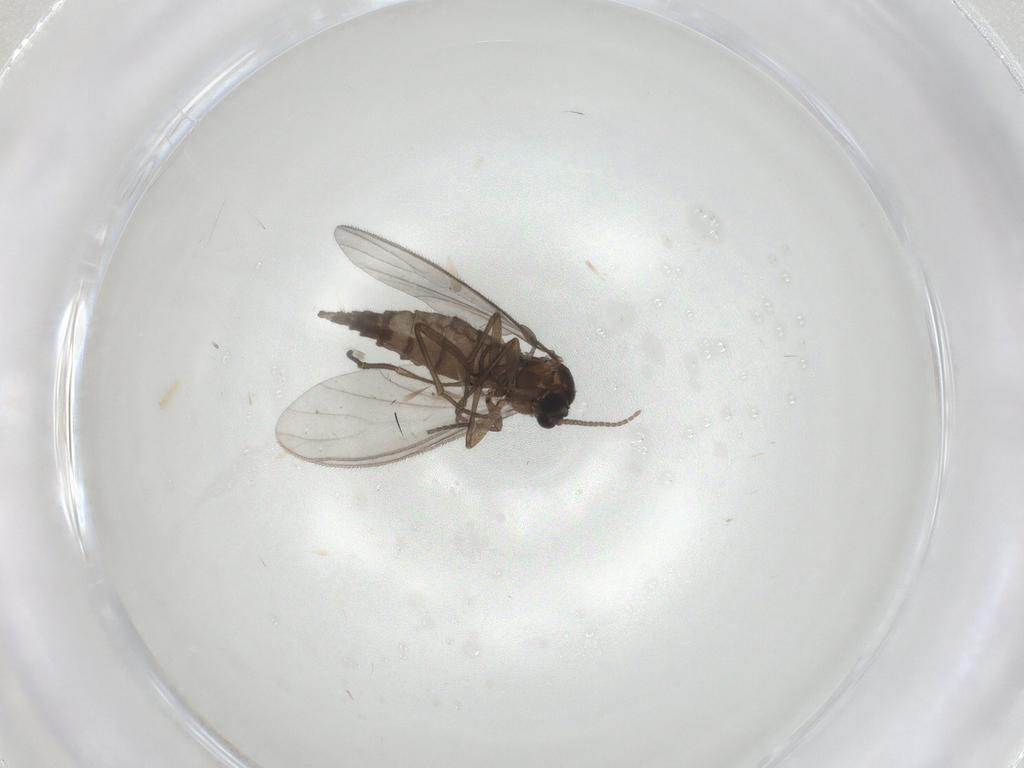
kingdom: Animalia
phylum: Arthropoda
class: Insecta
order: Diptera
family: Sciaridae
